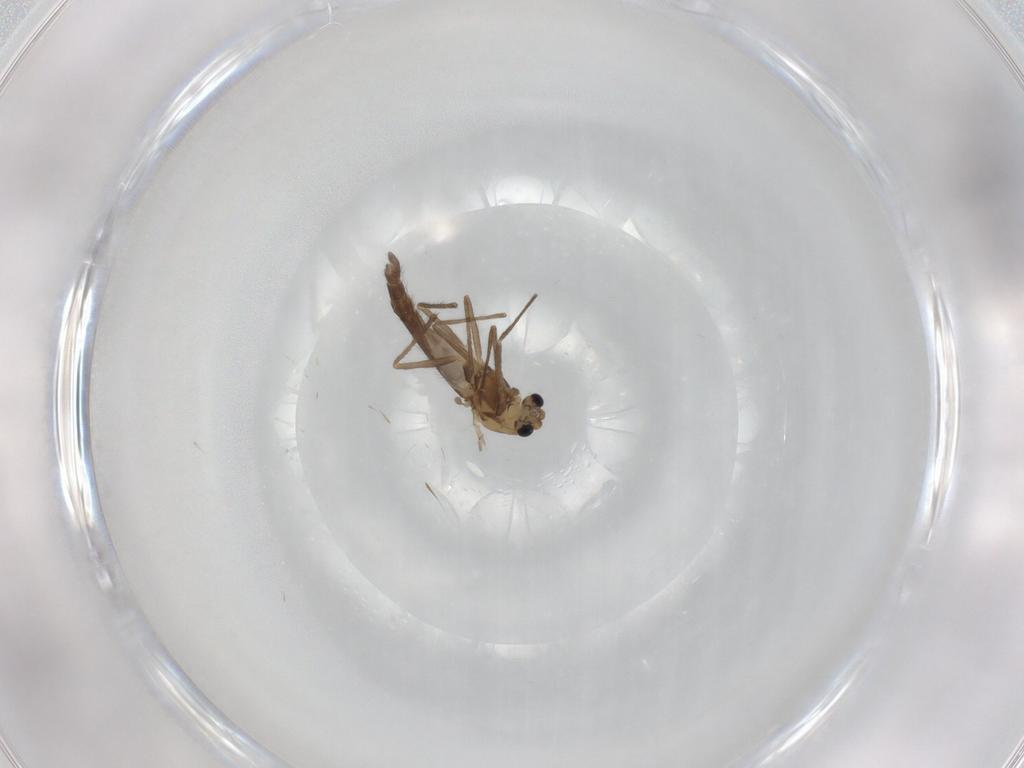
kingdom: Animalia
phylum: Arthropoda
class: Insecta
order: Diptera
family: Chironomidae
